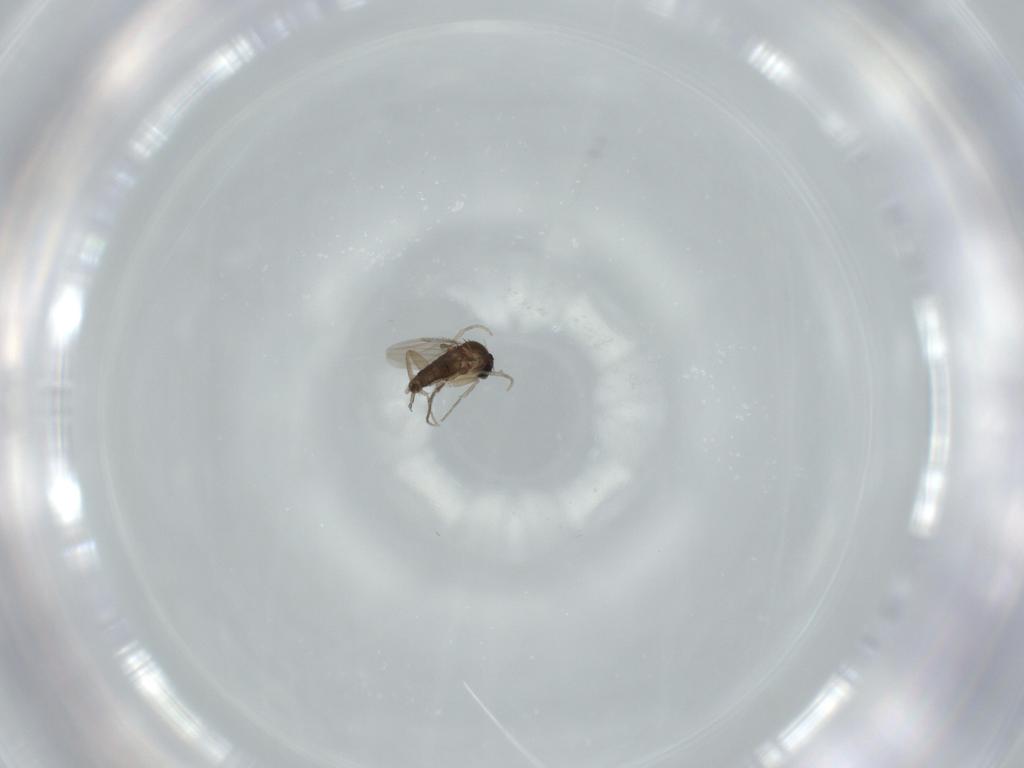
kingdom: Animalia
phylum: Arthropoda
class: Insecta
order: Diptera
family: Phoridae
